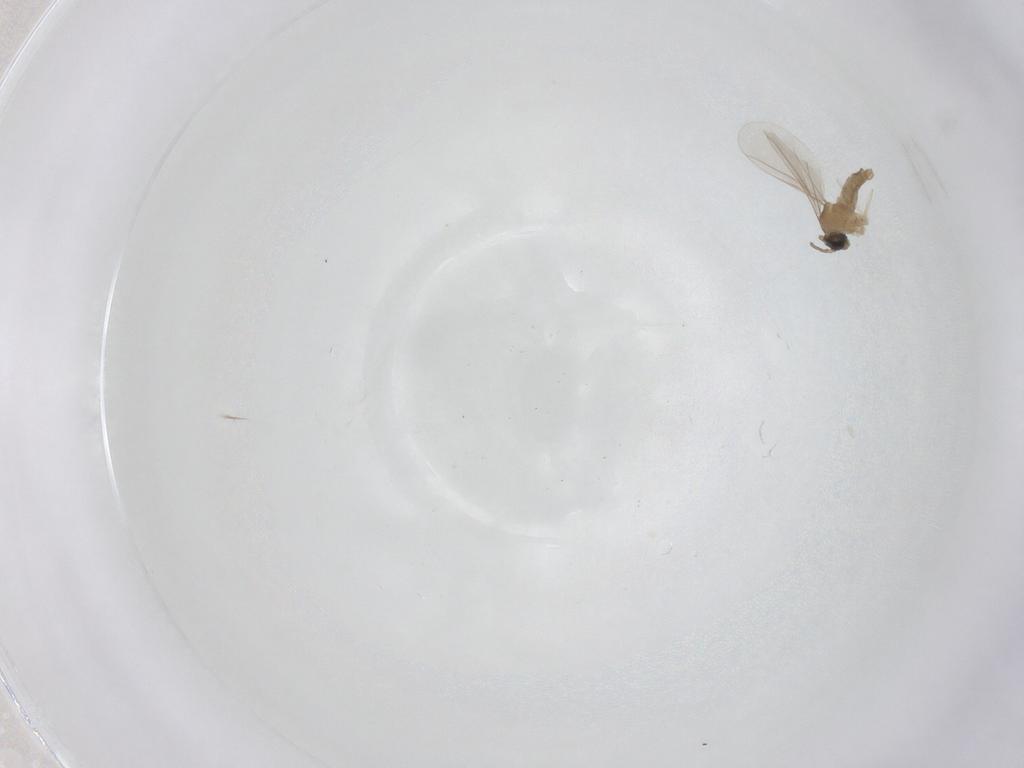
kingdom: Animalia
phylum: Arthropoda
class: Insecta
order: Diptera
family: Cecidomyiidae
